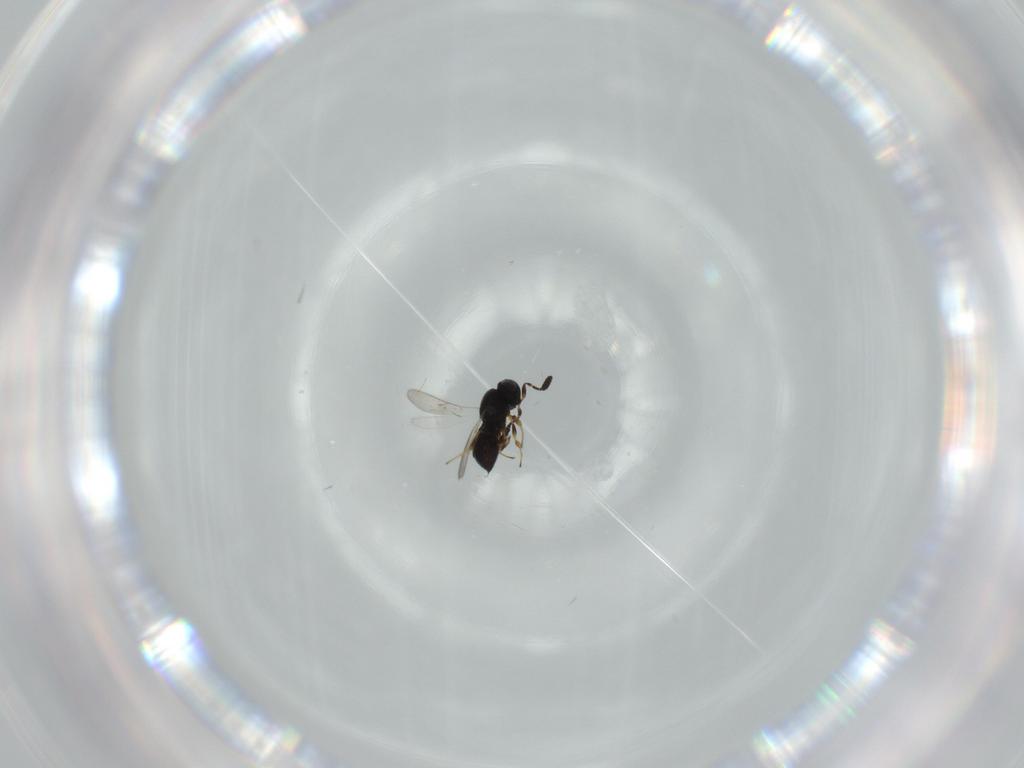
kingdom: Animalia
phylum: Arthropoda
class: Insecta
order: Hymenoptera
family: Scelionidae
